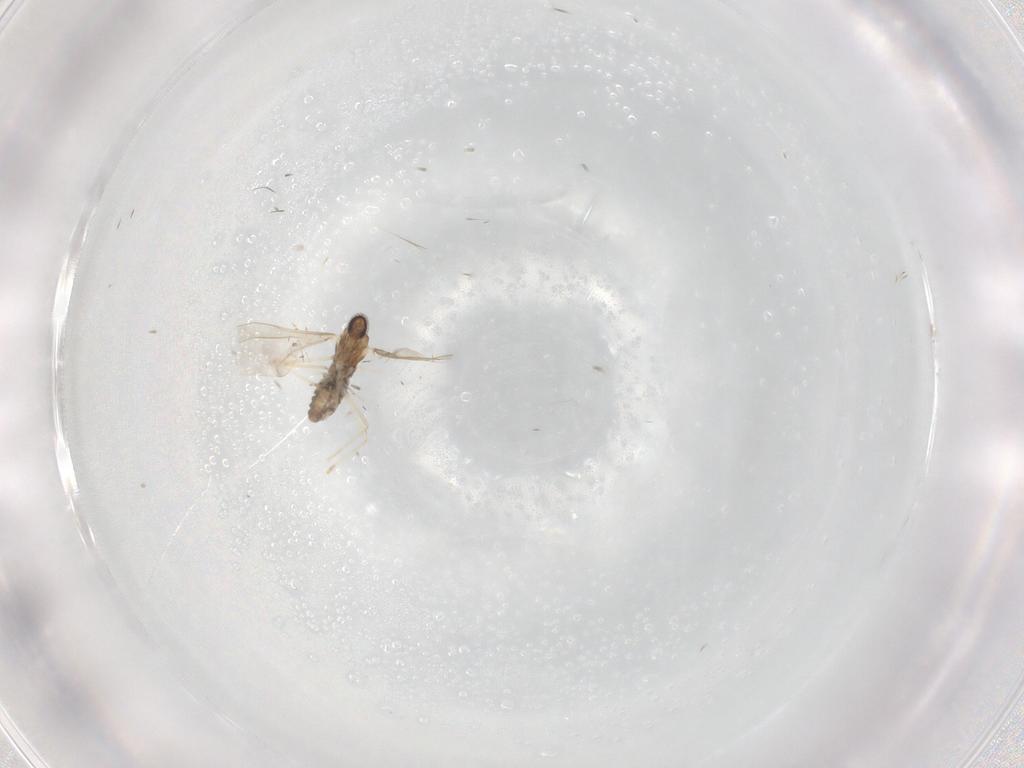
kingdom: Animalia
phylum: Arthropoda
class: Insecta
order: Diptera
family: Cecidomyiidae
